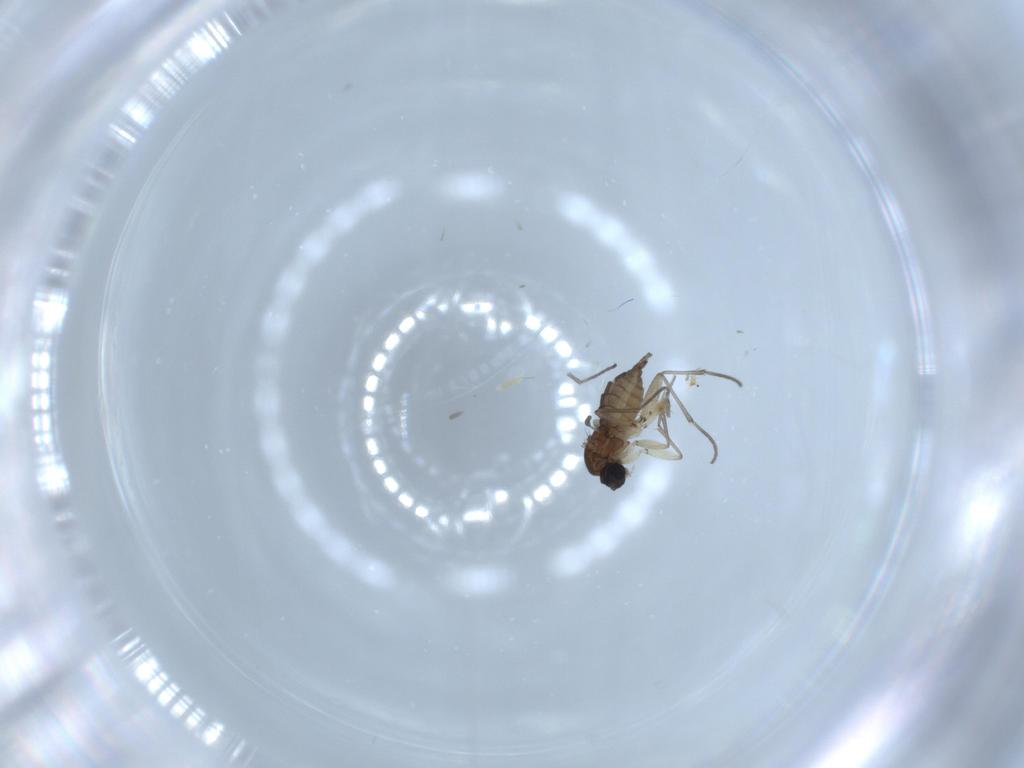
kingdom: Animalia
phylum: Arthropoda
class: Insecta
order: Diptera
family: Sciaridae
